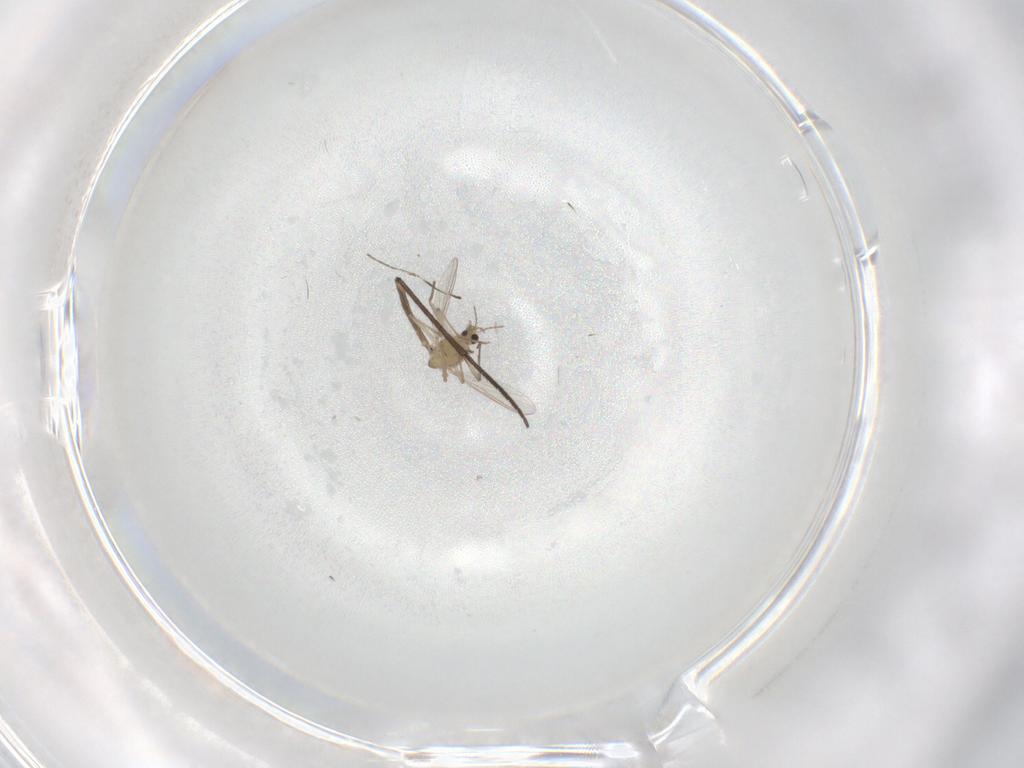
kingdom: Animalia
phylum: Arthropoda
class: Insecta
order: Diptera
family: Chironomidae
